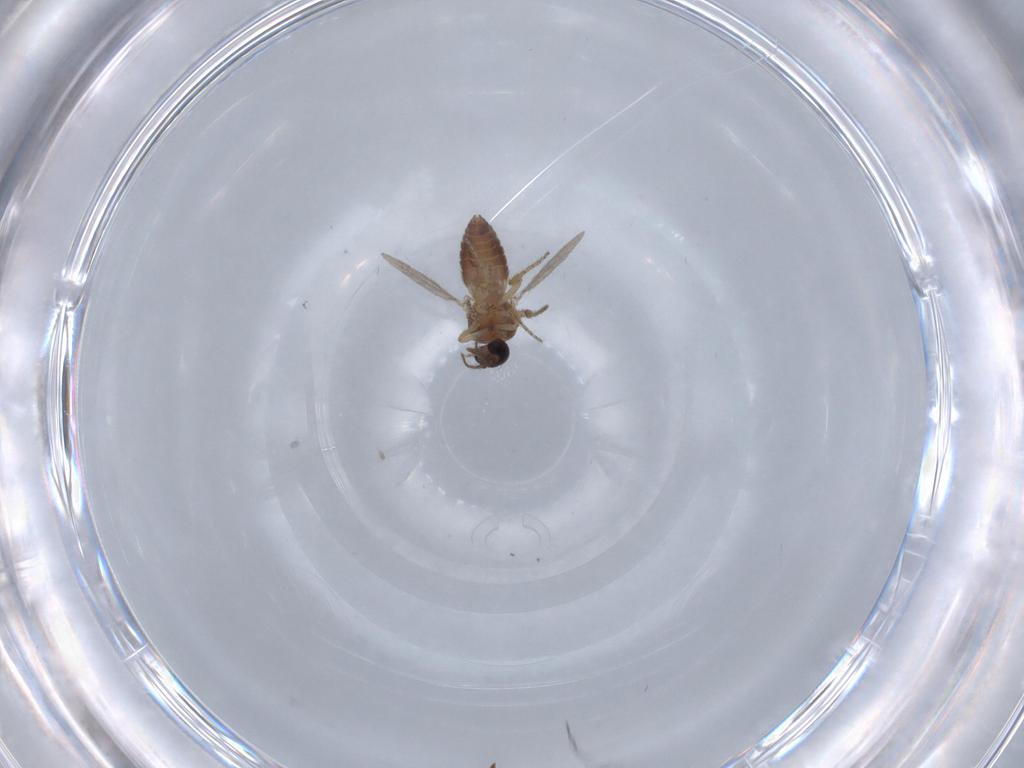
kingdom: Animalia
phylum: Arthropoda
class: Insecta
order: Diptera
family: Ceratopogonidae
